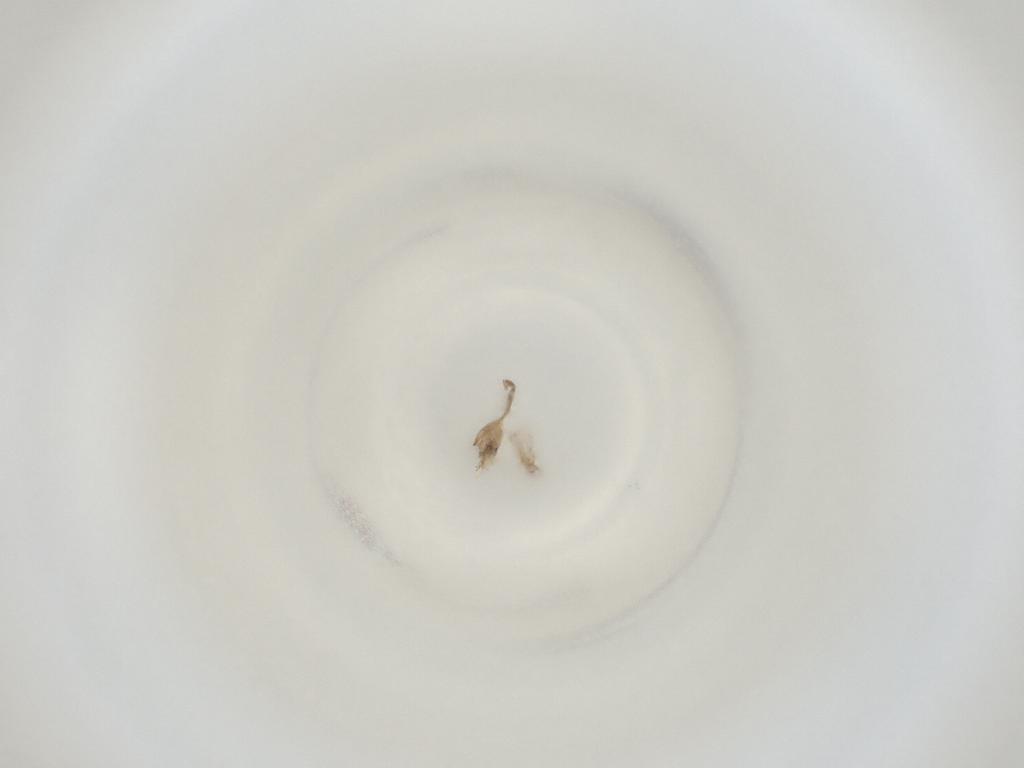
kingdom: Animalia
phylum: Arthropoda
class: Insecta
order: Diptera
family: Cecidomyiidae
